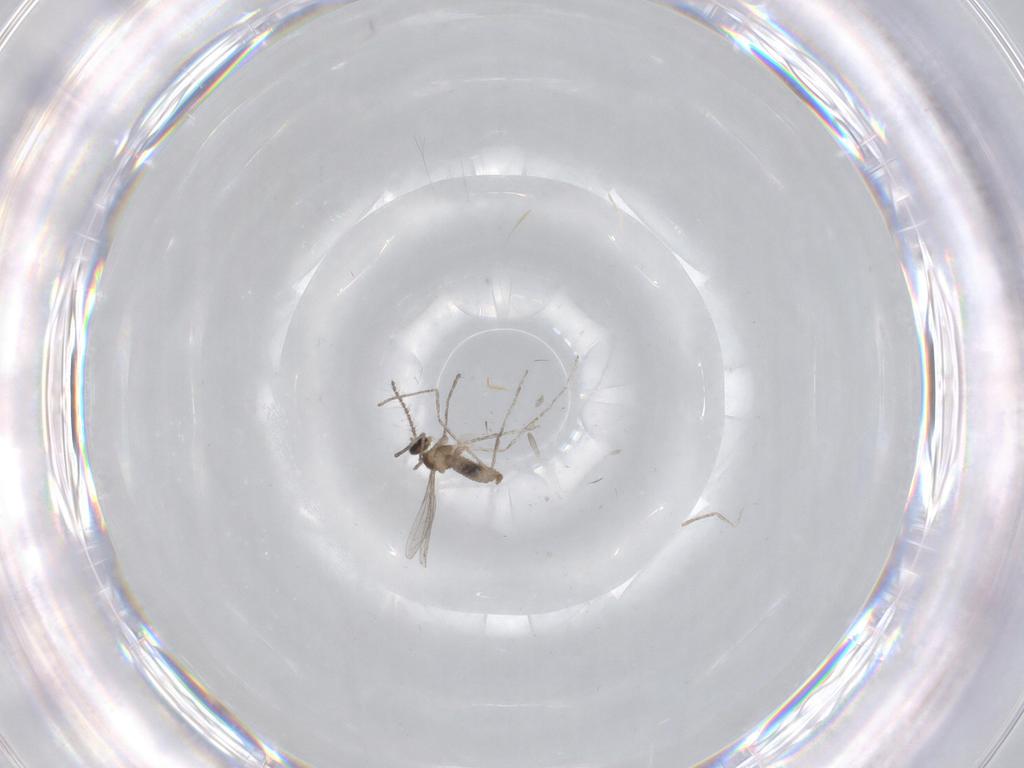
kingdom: Animalia
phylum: Arthropoda
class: Insecta
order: Diptera
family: Cecidomyiidae
